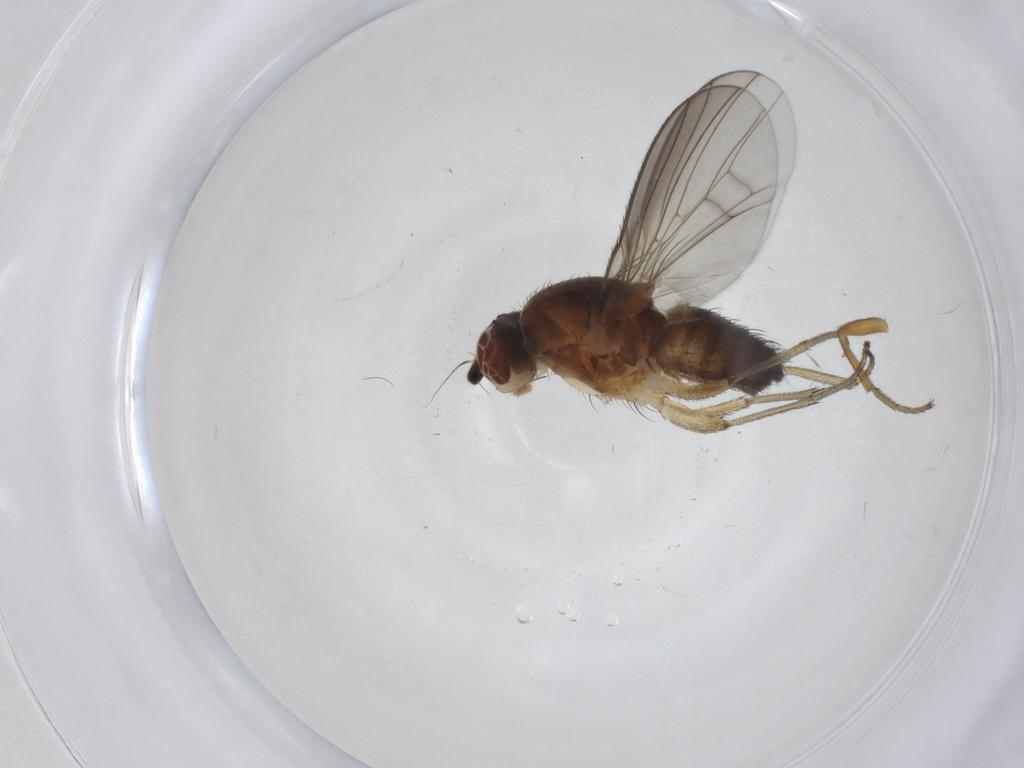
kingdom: Animalia
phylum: Arthropoda
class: Insecta
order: Diptera
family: Heleomyzidae
